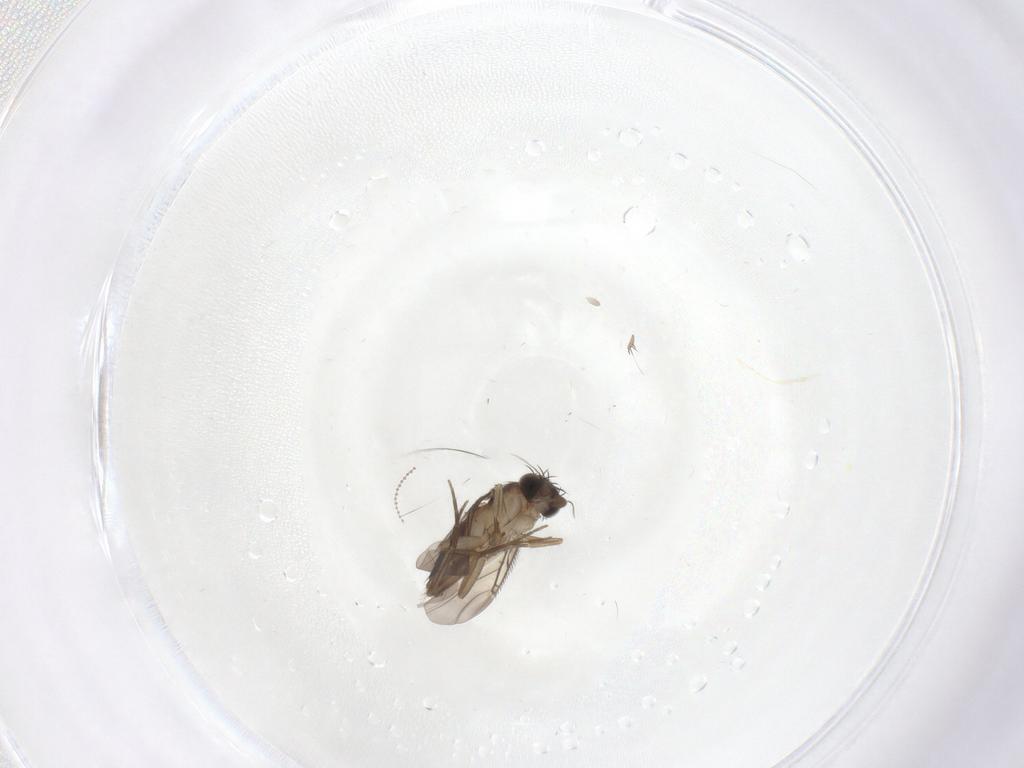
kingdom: Animalia
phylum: Arthropoda
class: Insecta
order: Diptera
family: Phoridae
